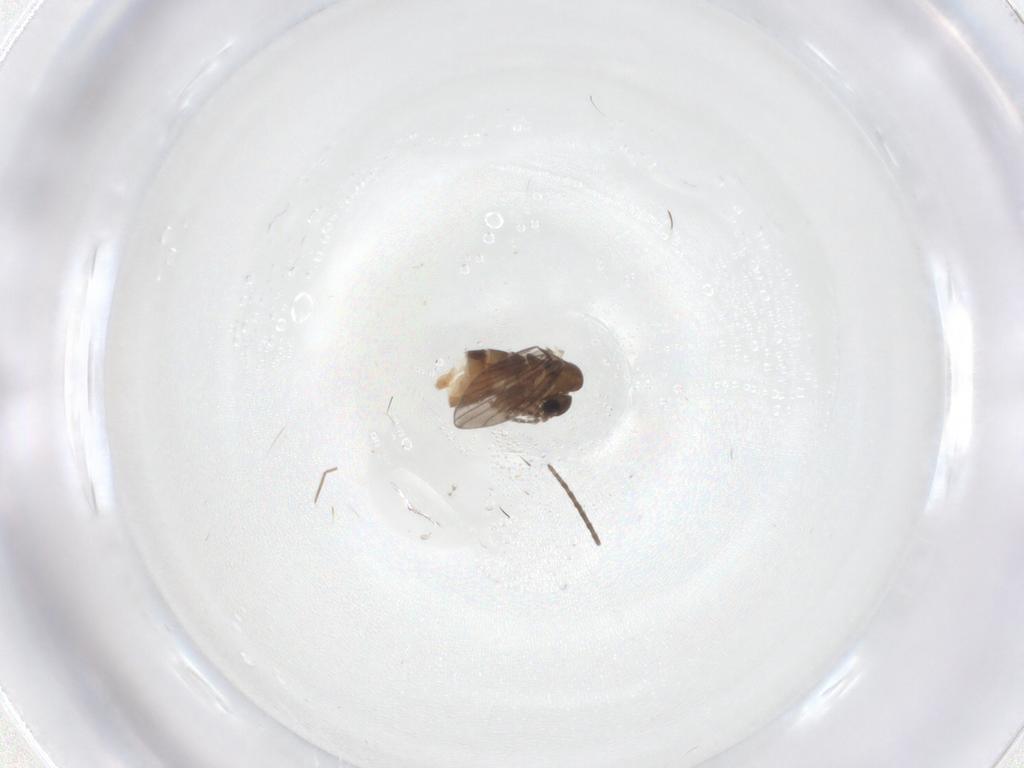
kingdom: Animalia
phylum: Arthropoda
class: Insecta
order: Diptera
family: Psychodidae
